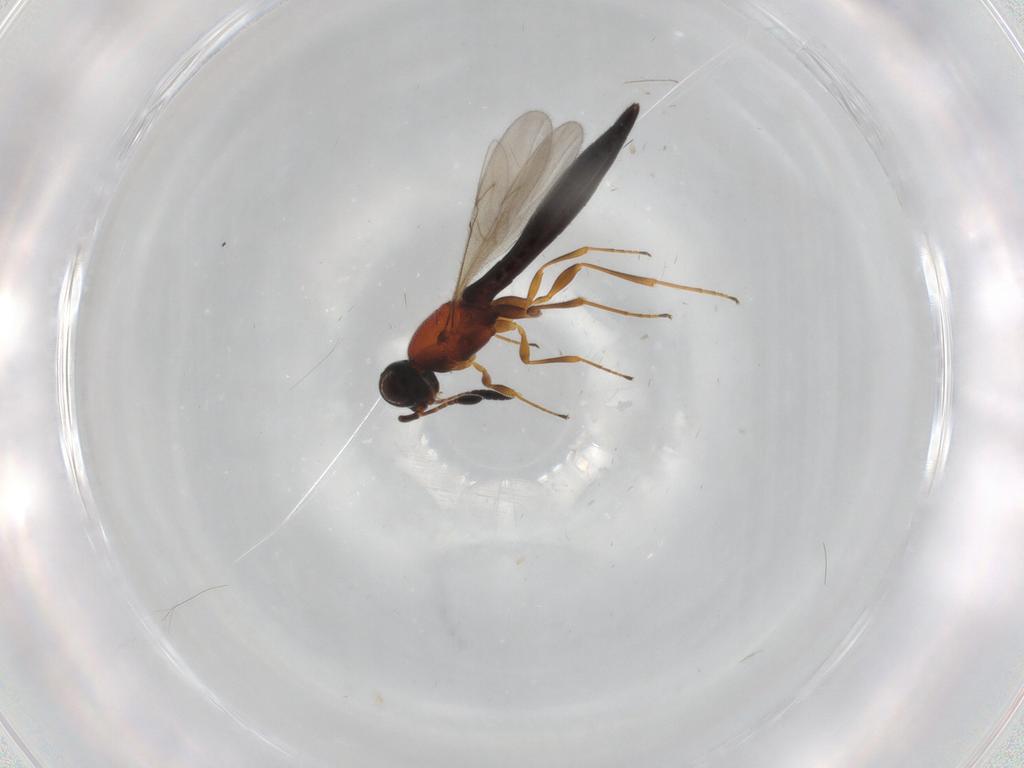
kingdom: Animalia
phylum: Arthropoda
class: Insecta
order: Hymenoptera
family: Scelionidae
